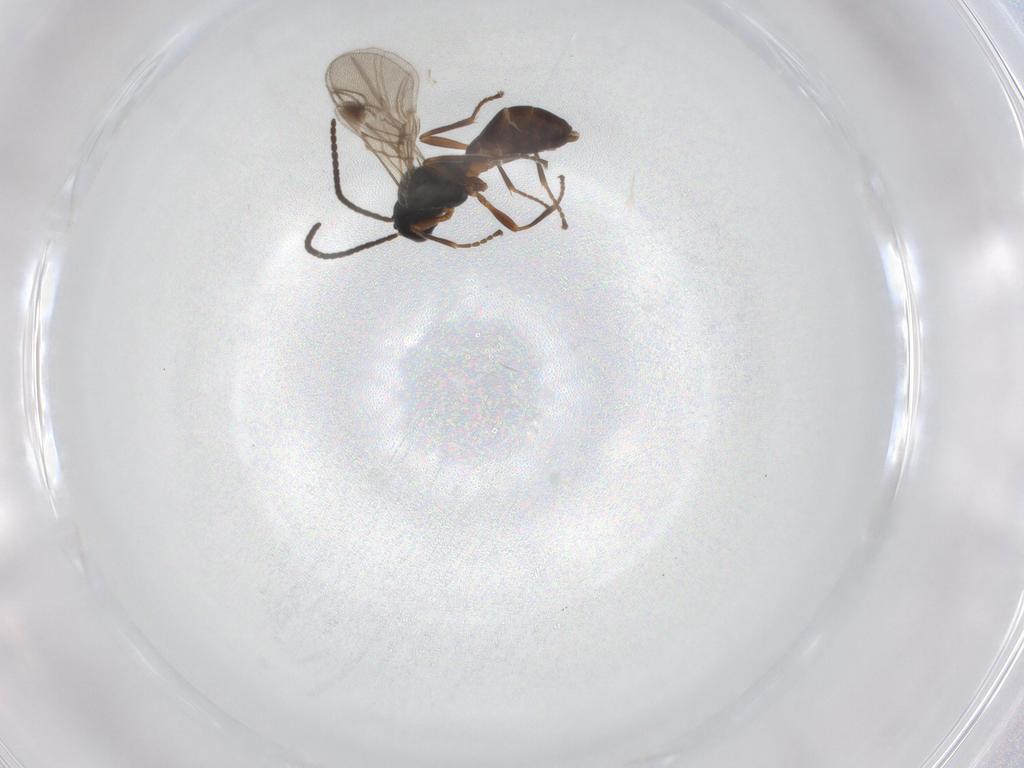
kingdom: Animalia
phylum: Arthropoda
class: Insecta
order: Hymenoptera
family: Braconidae
